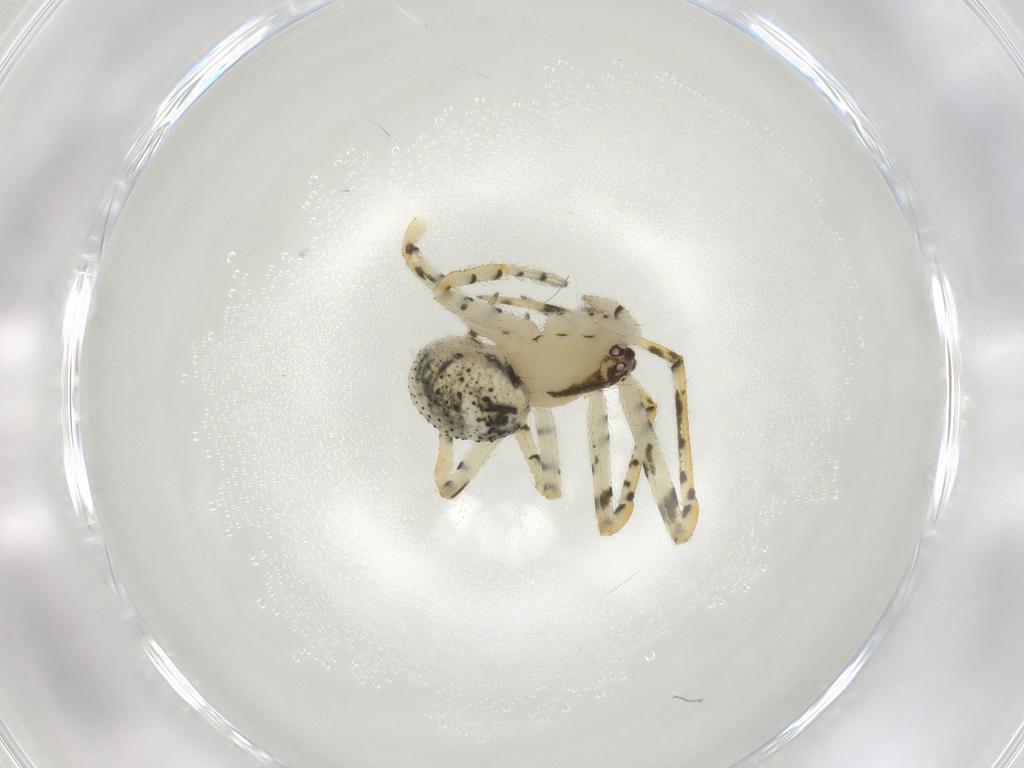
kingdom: Animalia
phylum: Arthropoda
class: Arachnida
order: Araneae
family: Theridiidae
